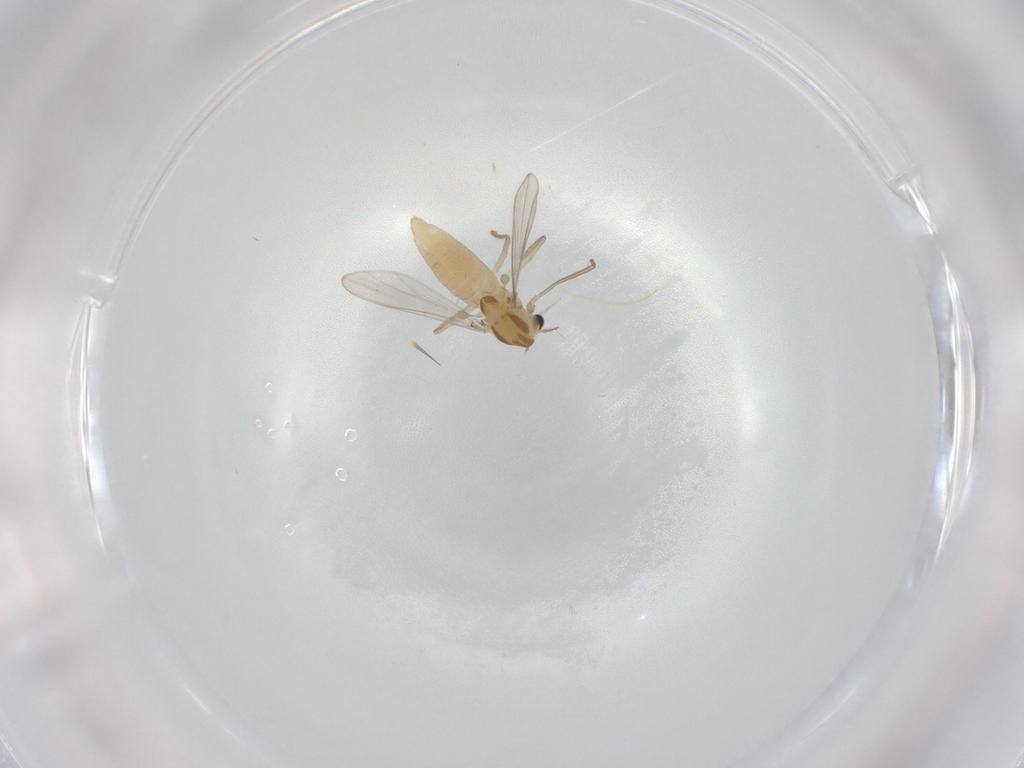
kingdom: Animalia
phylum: Arthropoda
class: Insecta
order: Diptera
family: Chironomidae
